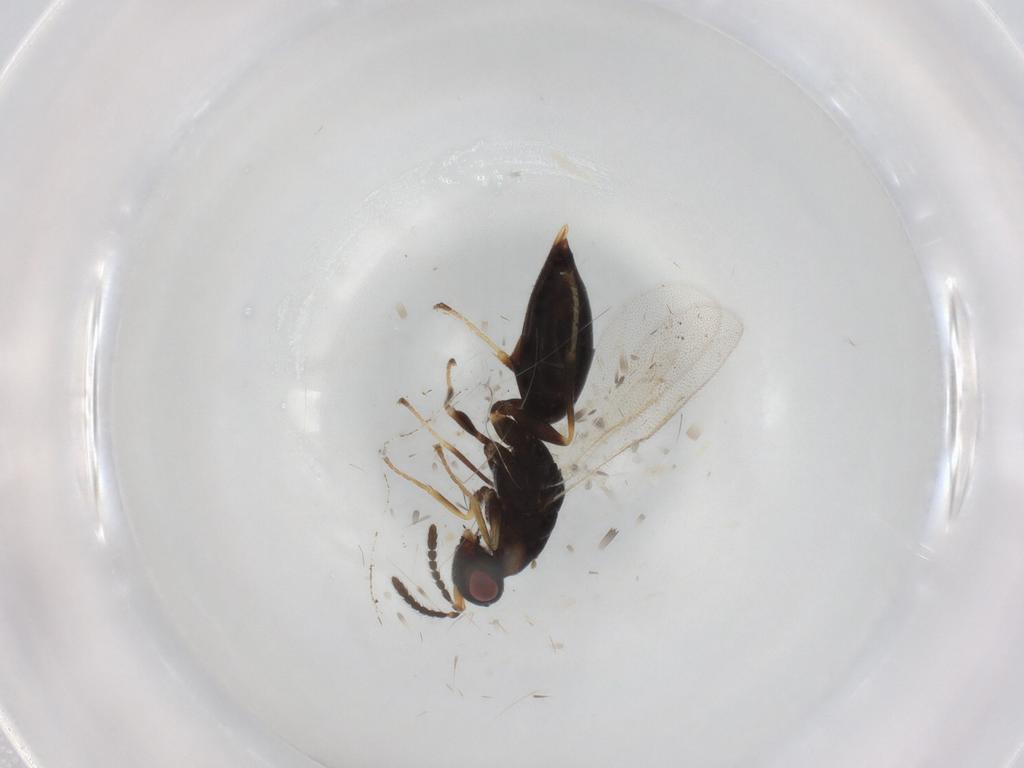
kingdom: Animalia
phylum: Arthropoda
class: Insecta
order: Hymenoptera
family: Eurytomidae
